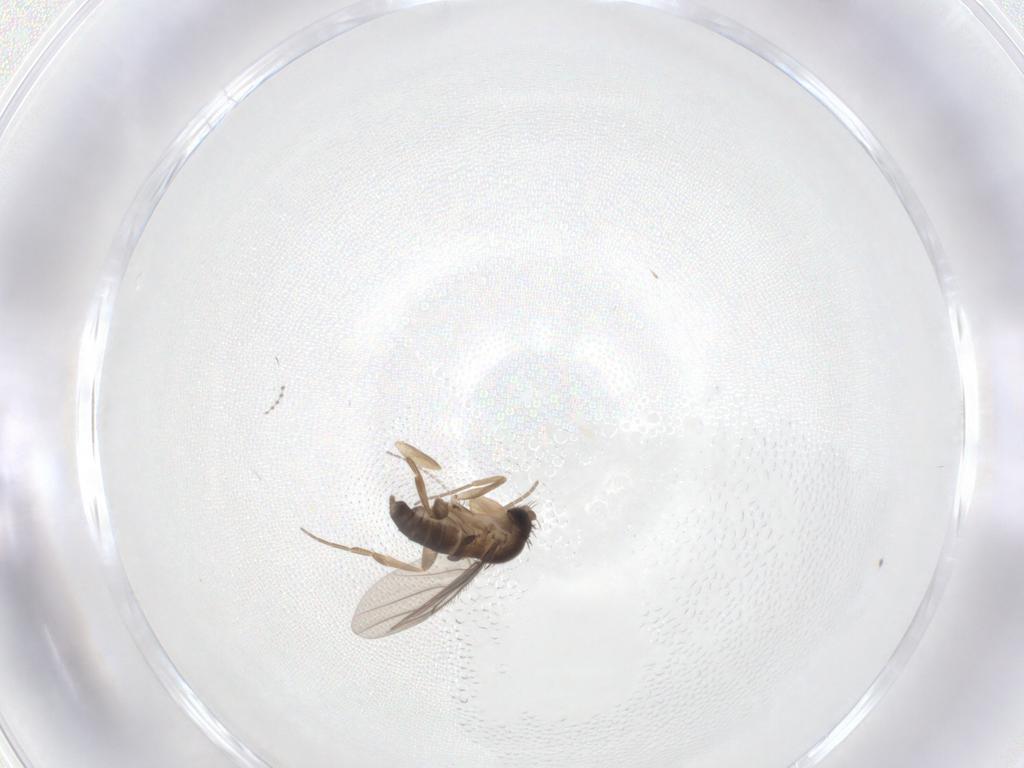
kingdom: Animalia
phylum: Arthropoda
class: Insecta
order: Diptera
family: Cecidomyiidae
